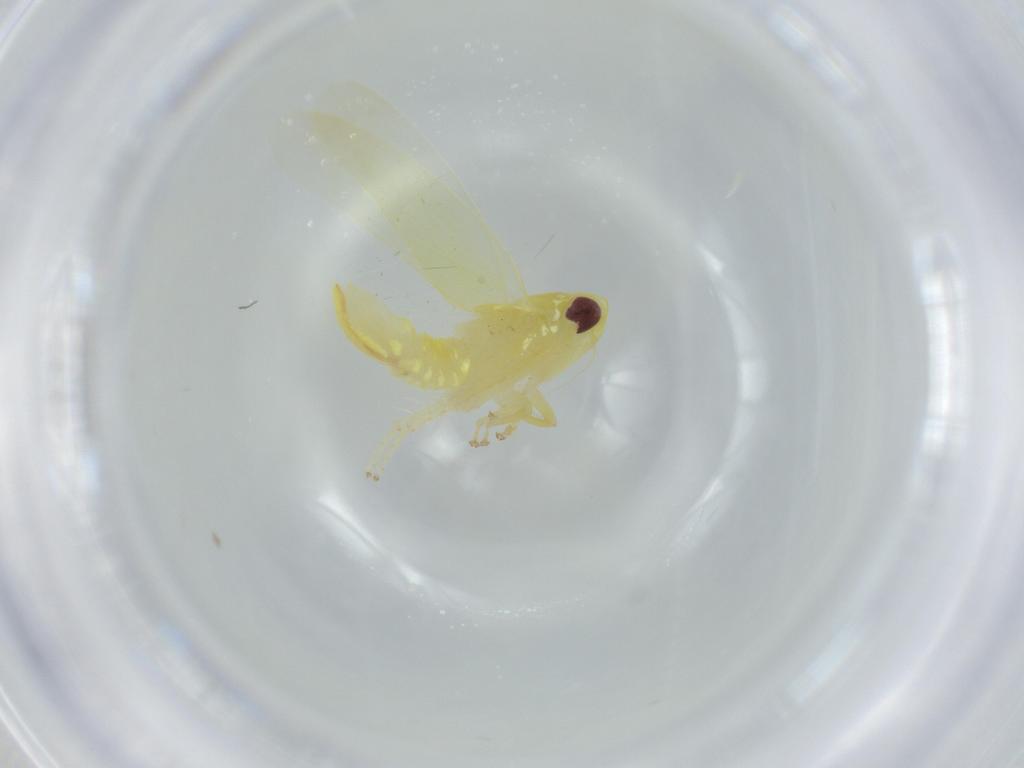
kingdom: Animalia
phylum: Arthropoda
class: Insecta
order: Hemiptera
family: Cicadellidae
